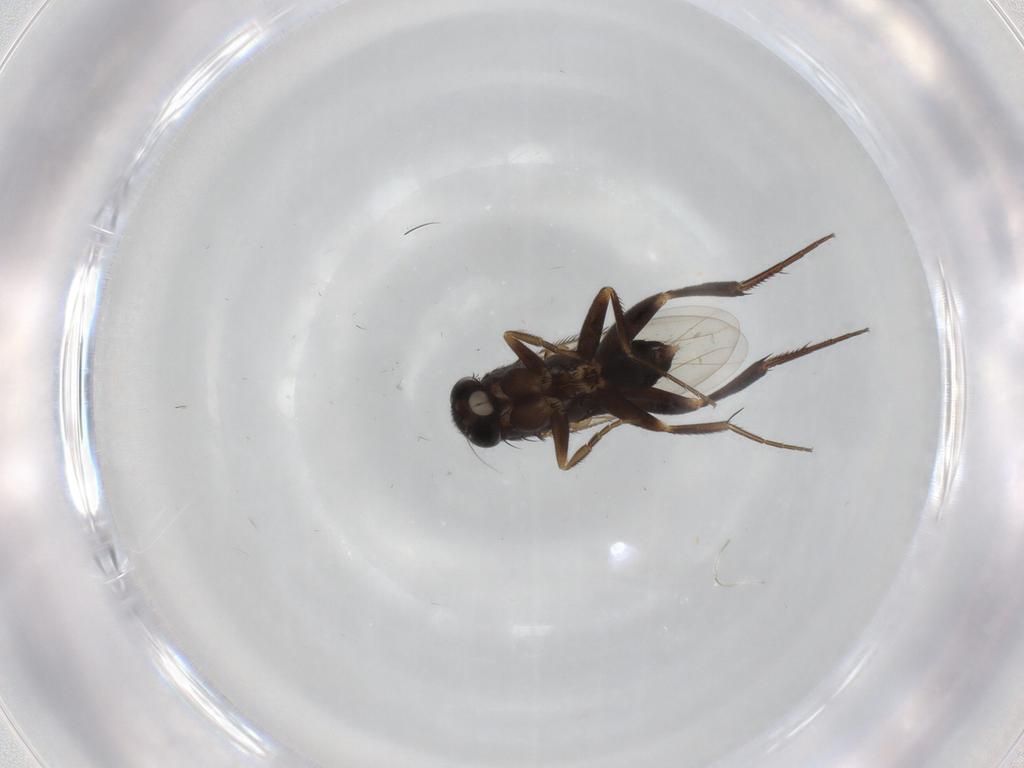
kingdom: Animalia
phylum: Arthropoda
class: Insecta
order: Diptera
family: Phoridae
